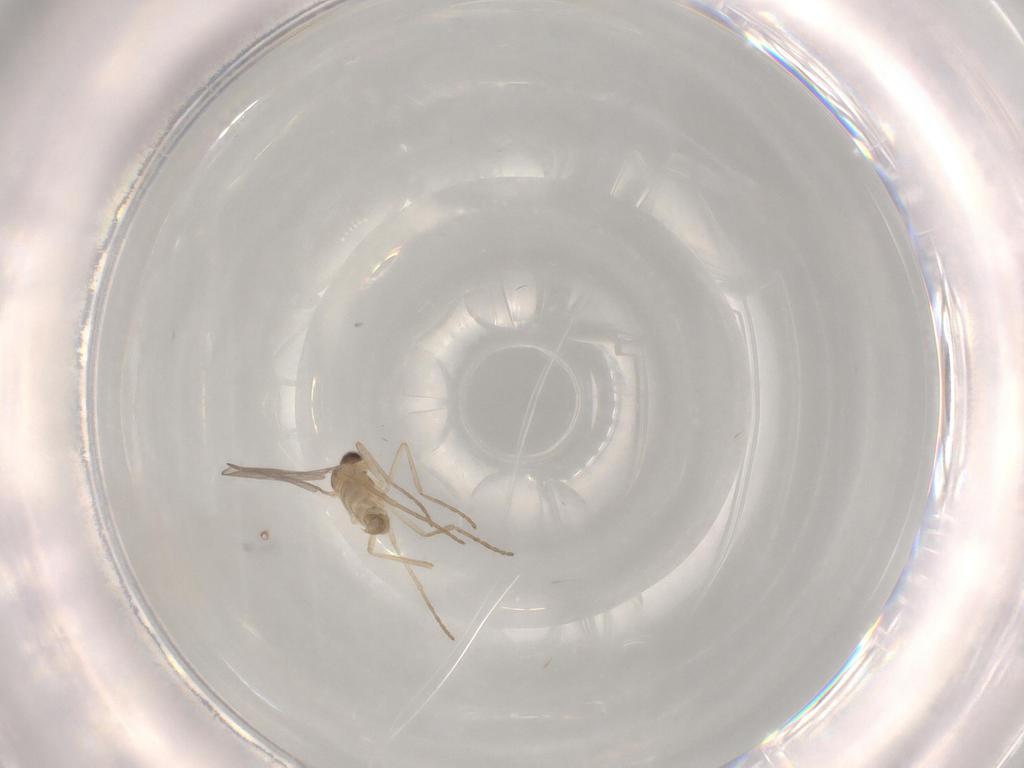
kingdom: Animalia
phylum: Arthropoda
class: Insecta
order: Diptera
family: Cecidomyiidae
